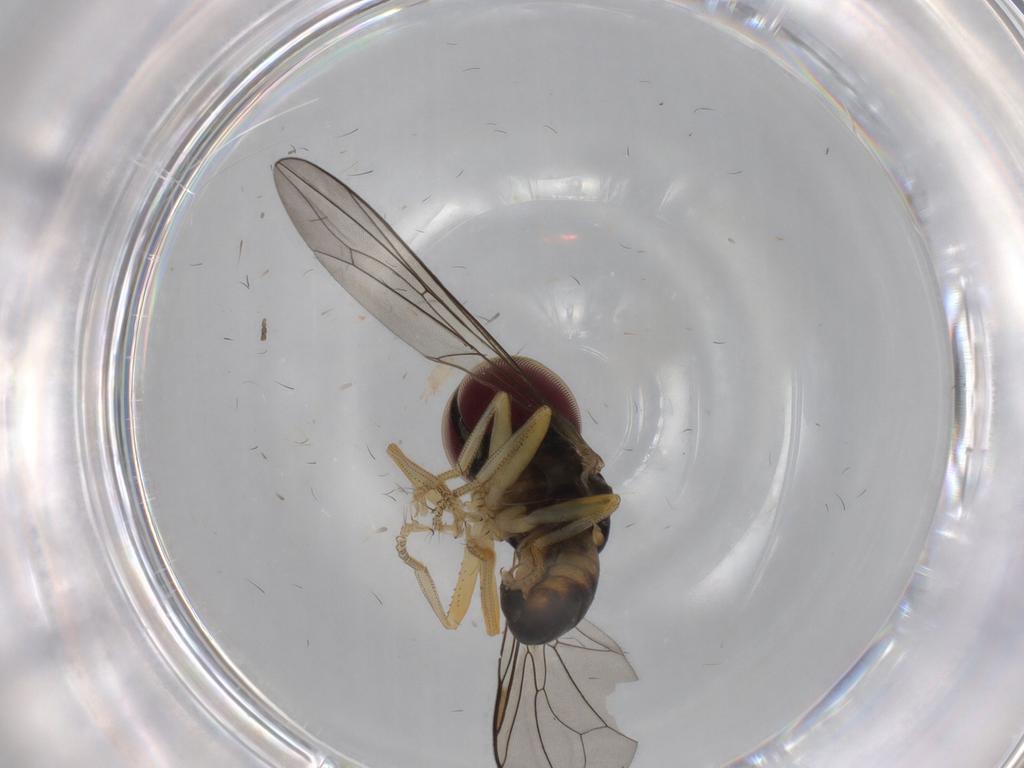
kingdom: Animalia
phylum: Arthropoda
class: Insecta
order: Diptera
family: Pipunculidae
